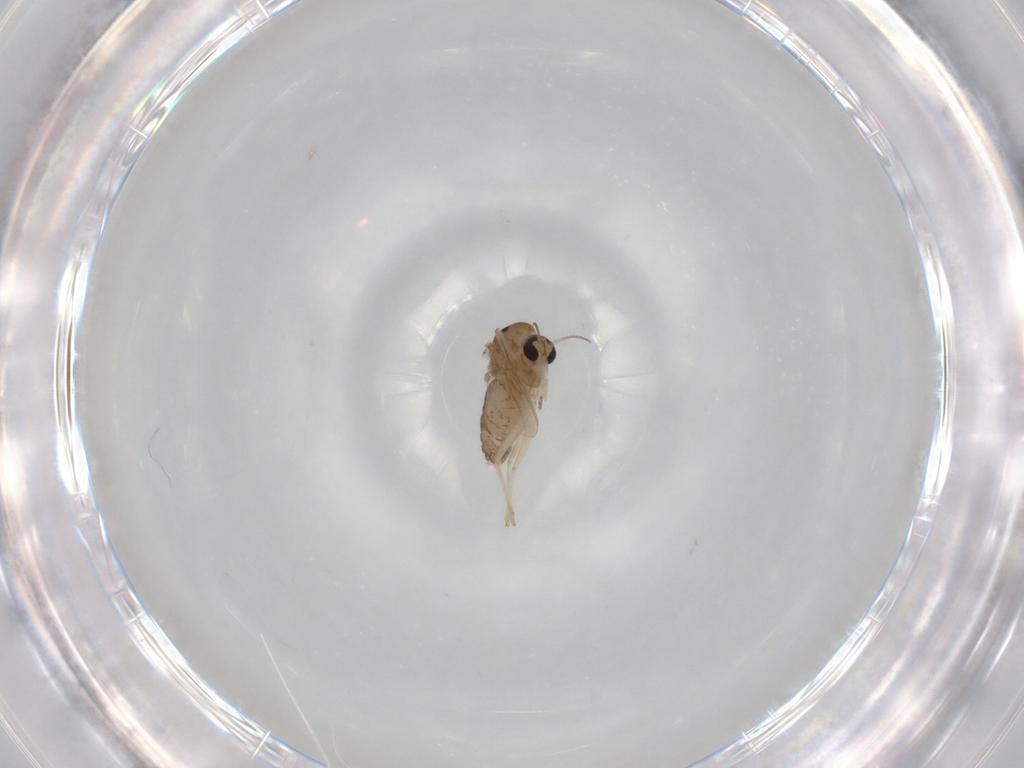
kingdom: Animalia
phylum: Arthropoda
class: Insecta
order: Diptera
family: Chironomidae
